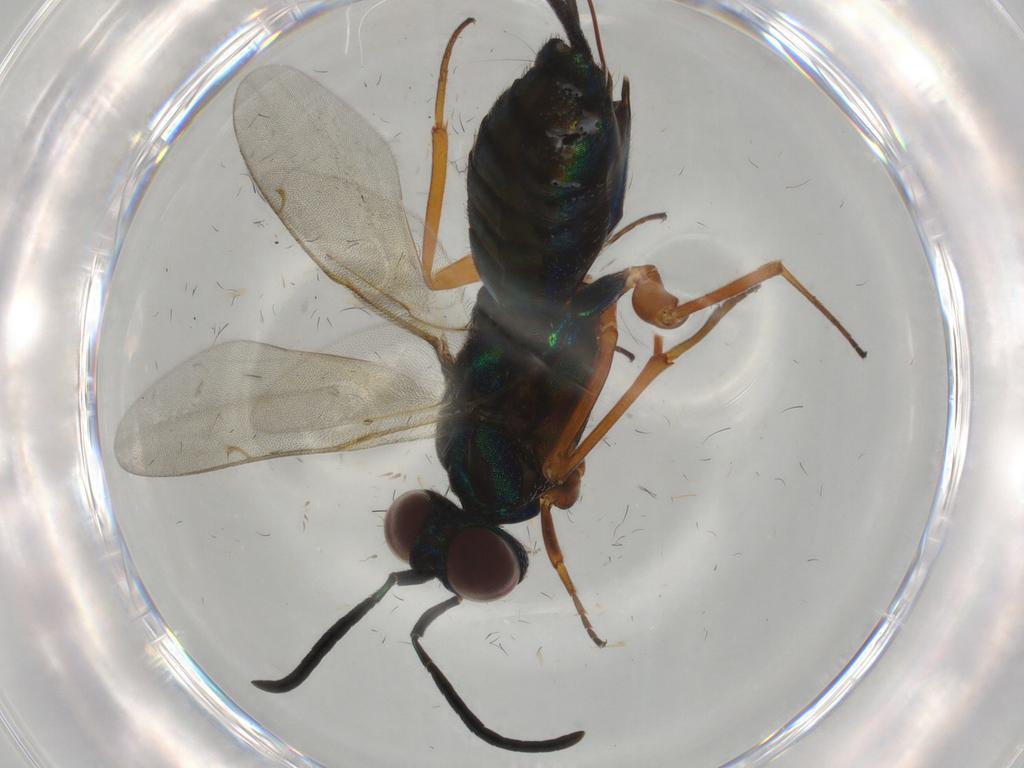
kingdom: Animalia
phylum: Arthropoda
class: Insecta
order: Hymenoptera
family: Eupelmidae
